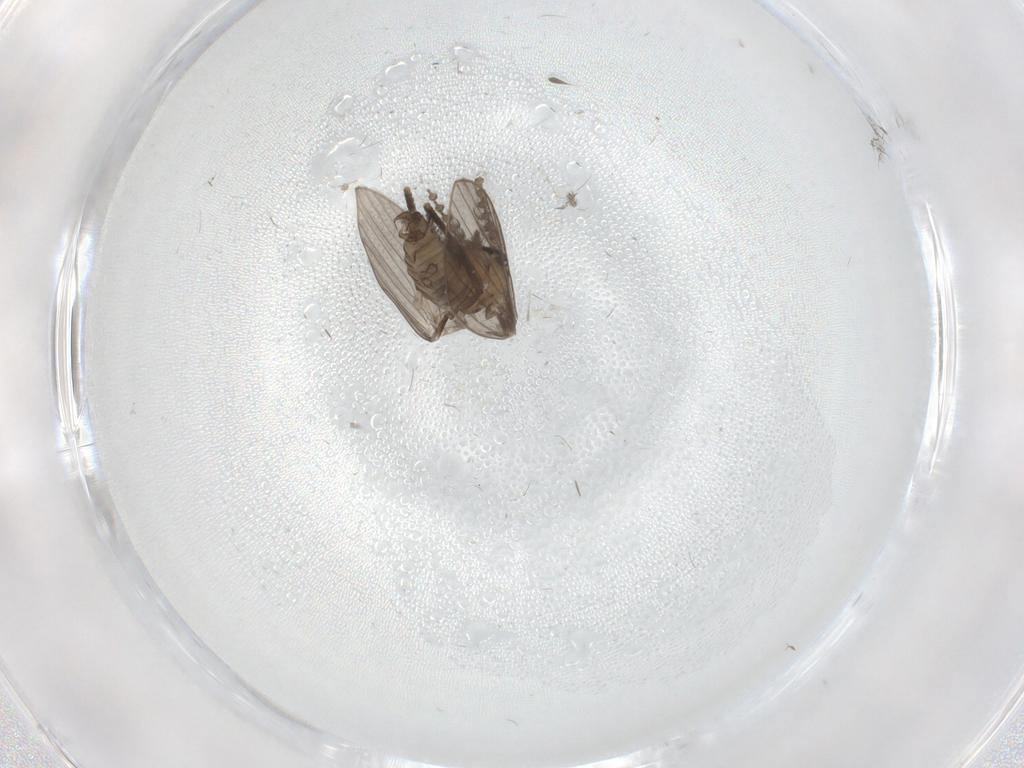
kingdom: Animalia
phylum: Arthropoda
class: Insecta
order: Diptera
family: Psychodidae
